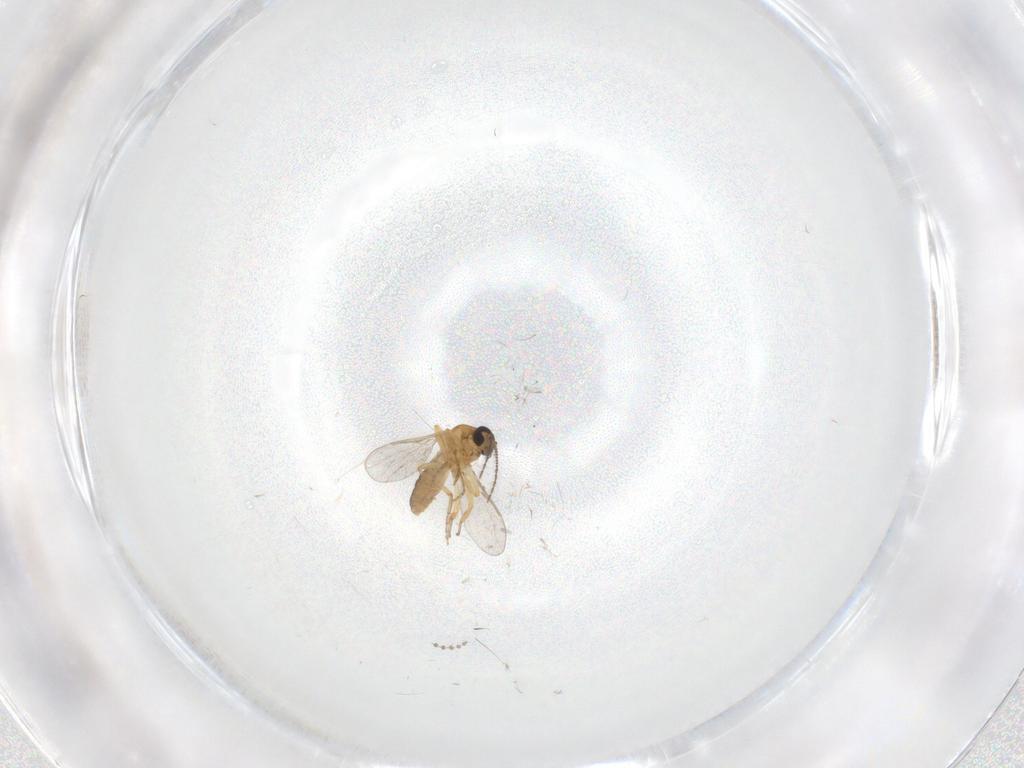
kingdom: Animalia
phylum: Arthropoda
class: Insecta
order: Diptera
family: Ceratopogonidae
